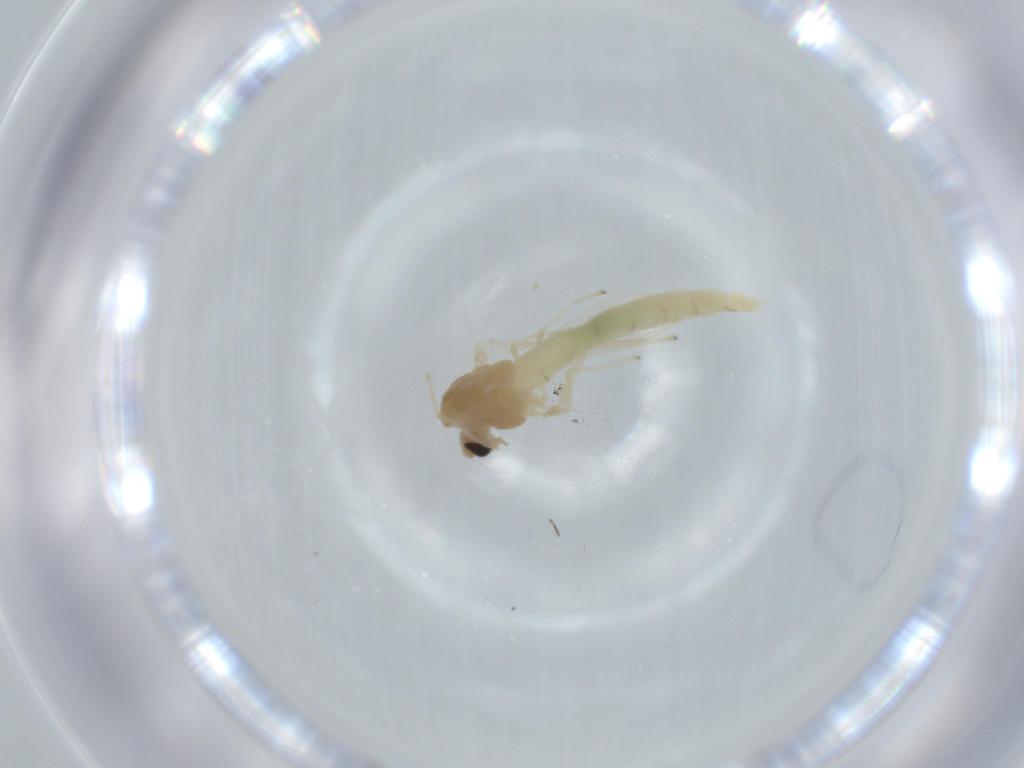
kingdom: Animalia
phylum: Arthropoda
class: Insecta
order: Diptera
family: Chironomidae
